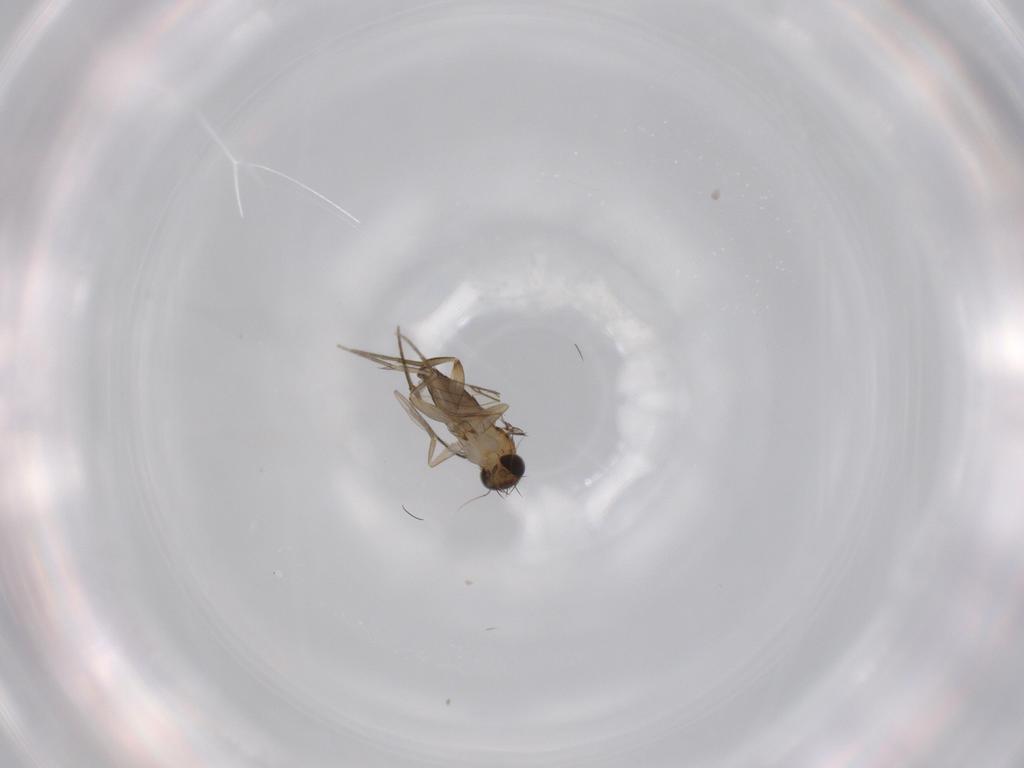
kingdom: Animalia
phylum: Arthropoda
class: Insecta
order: Diptera
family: Phoridae
